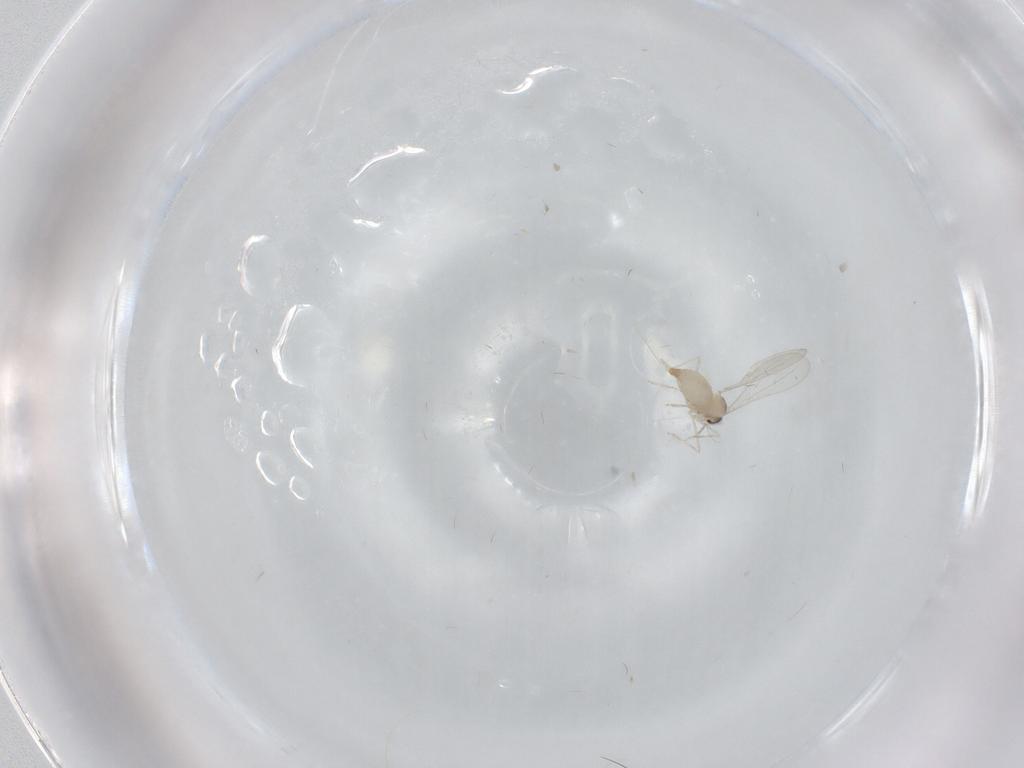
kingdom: Animalia
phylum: Arthropoda
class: Insecta
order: Diptera
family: Cecidomyiidae
